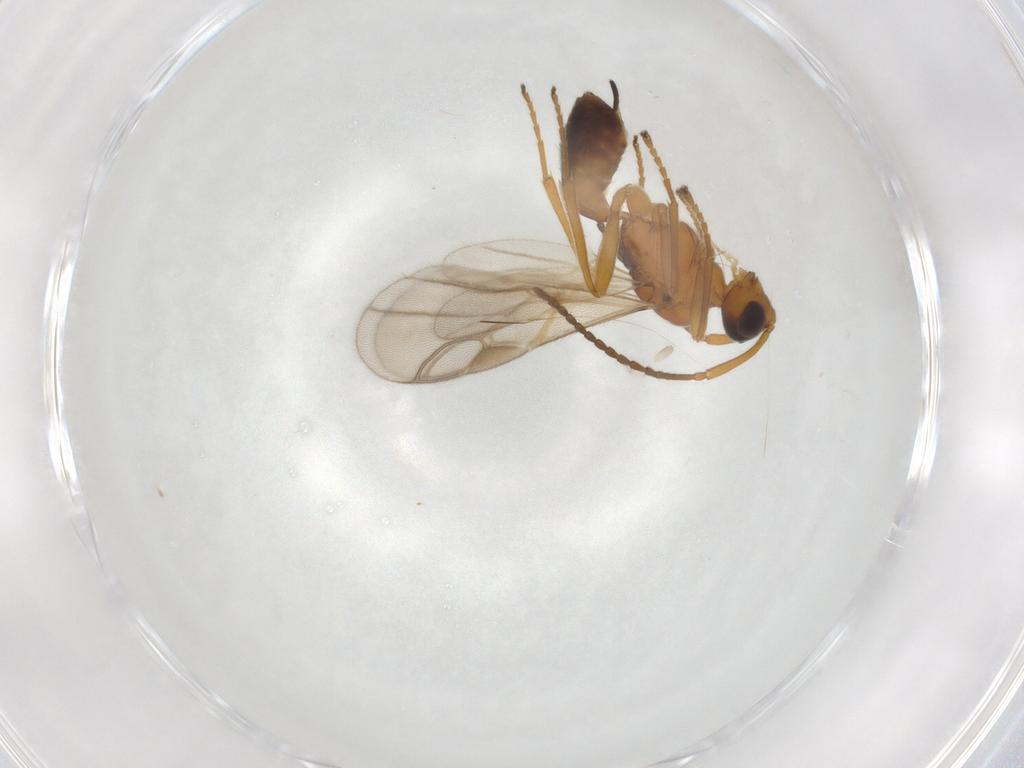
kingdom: Animalia
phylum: Arthropoda
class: Insecta
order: Hymenoptera
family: Braconidae
